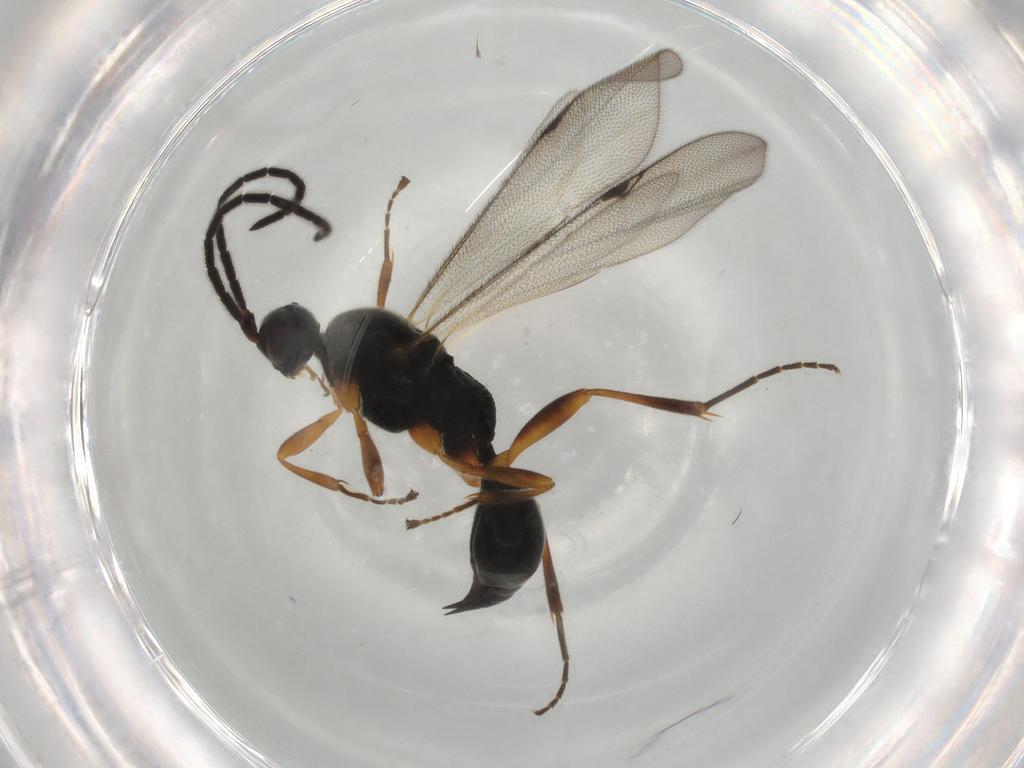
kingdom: Animalia
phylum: Arthropoda
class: Insecta
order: Hymenoptera
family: Proctotrupidae
